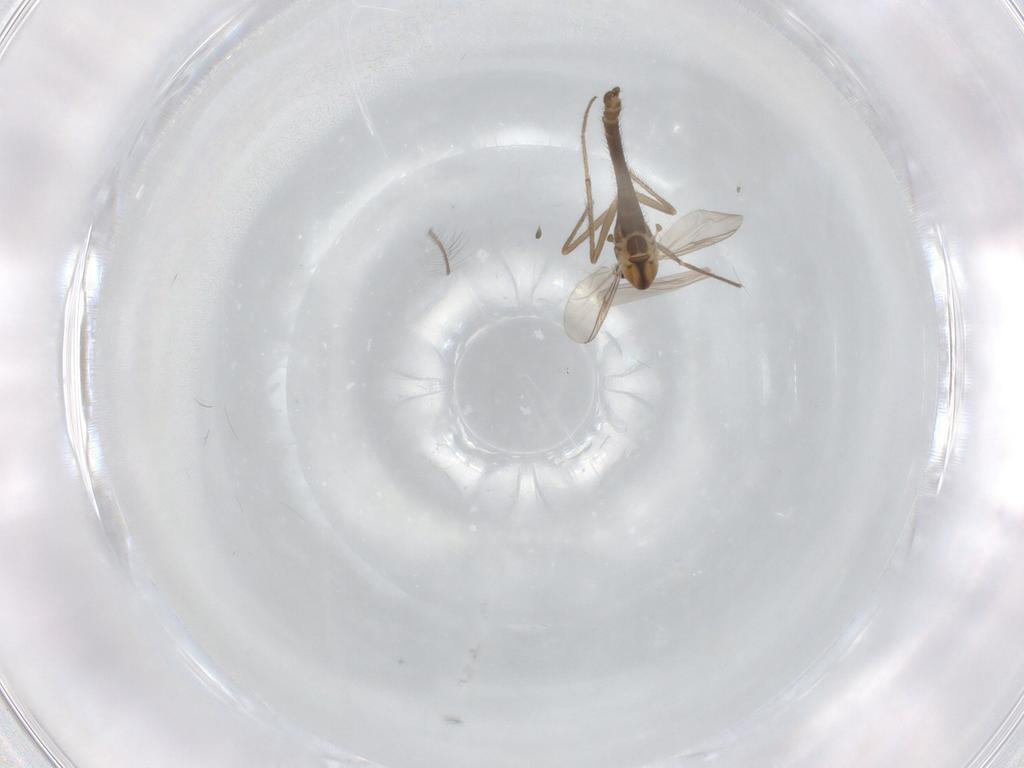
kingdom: Animalia
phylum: Arthropoda
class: Insecta
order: Diptera
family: Chironomidae
